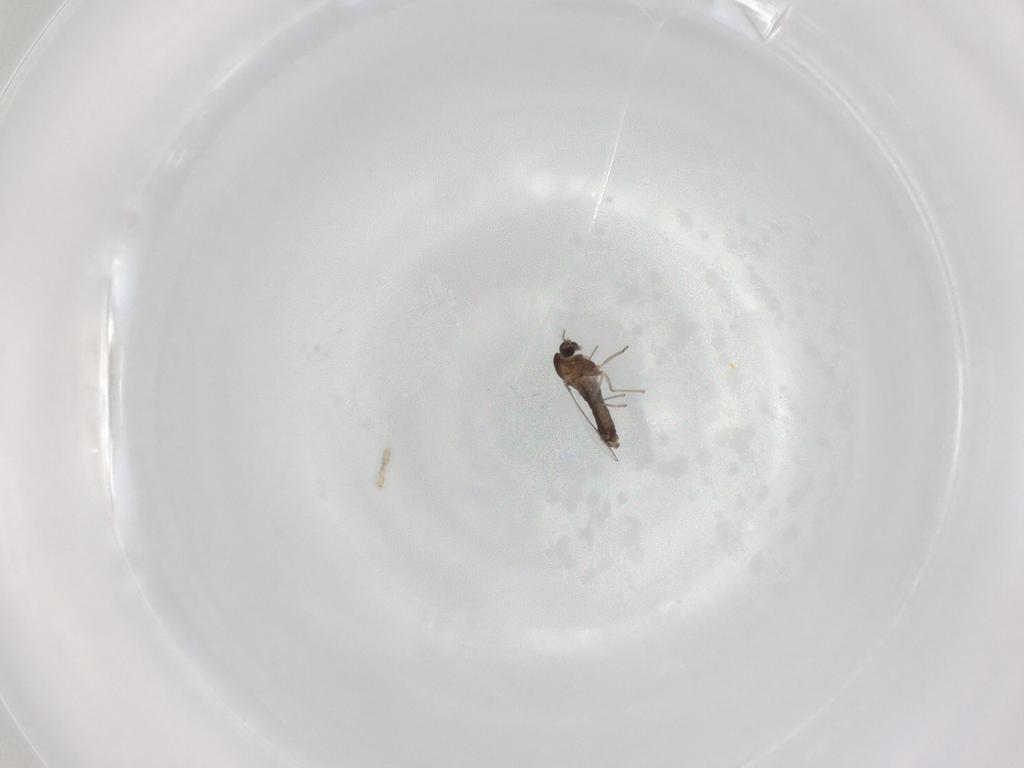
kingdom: Animalia
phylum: Arthropoda
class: Insecta
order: Diptera
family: Chironomidae
